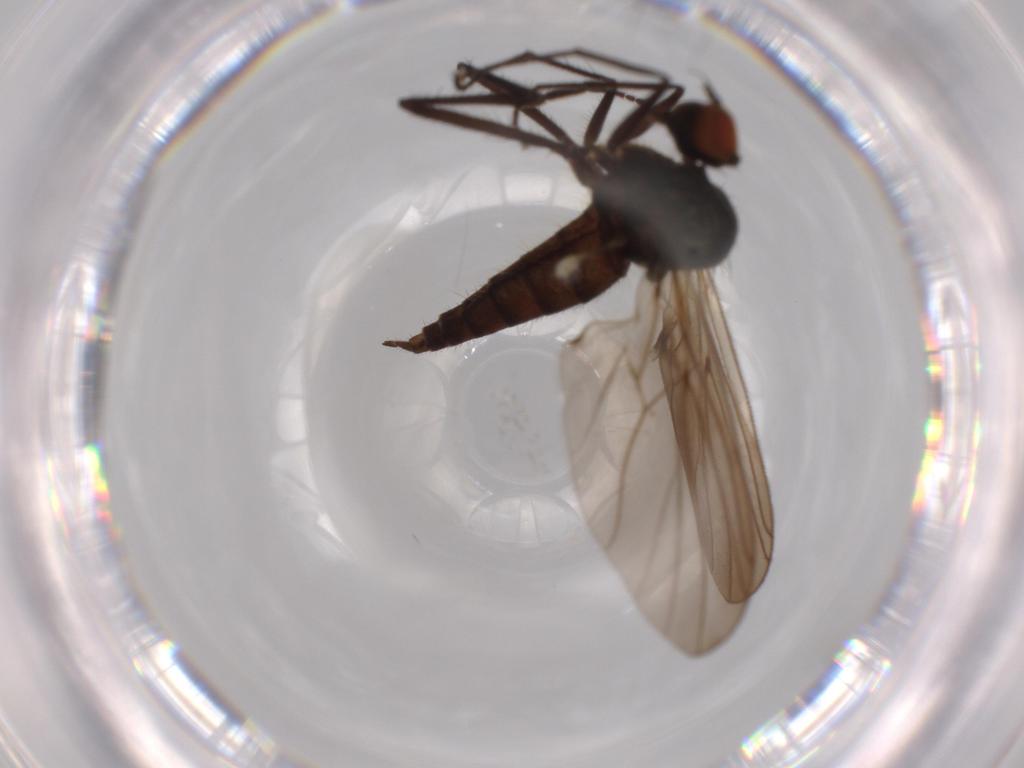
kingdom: Animalia
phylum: Arthropoda
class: Insecta
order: Diptera
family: Hybotidae
